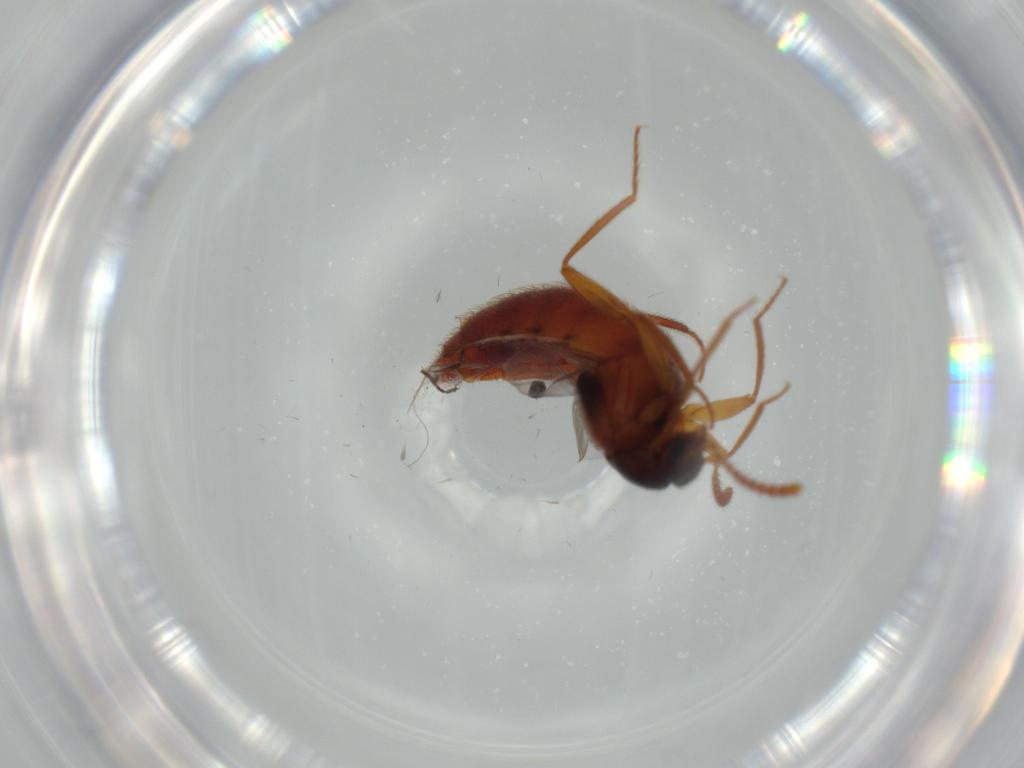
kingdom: Animalia
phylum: Arthropoda
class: Insecta
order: Coleoptera
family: Staphylinidae
